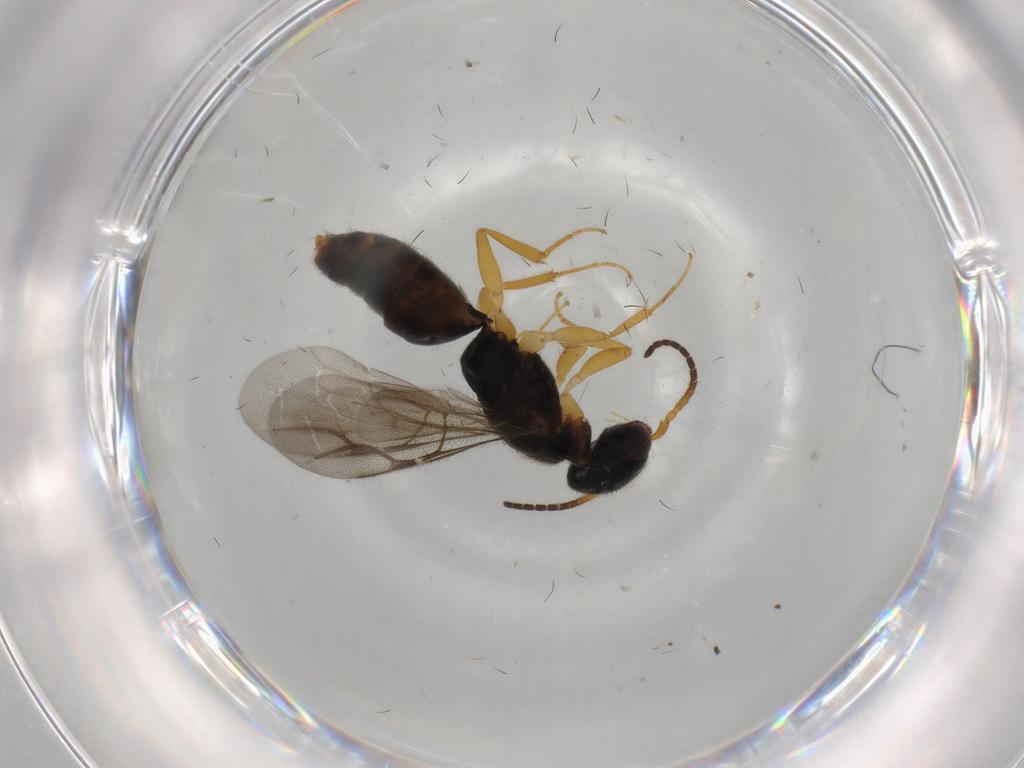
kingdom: Animalia
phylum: Arthropoda
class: Insecta
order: Hymenoptera
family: Bethylidae
